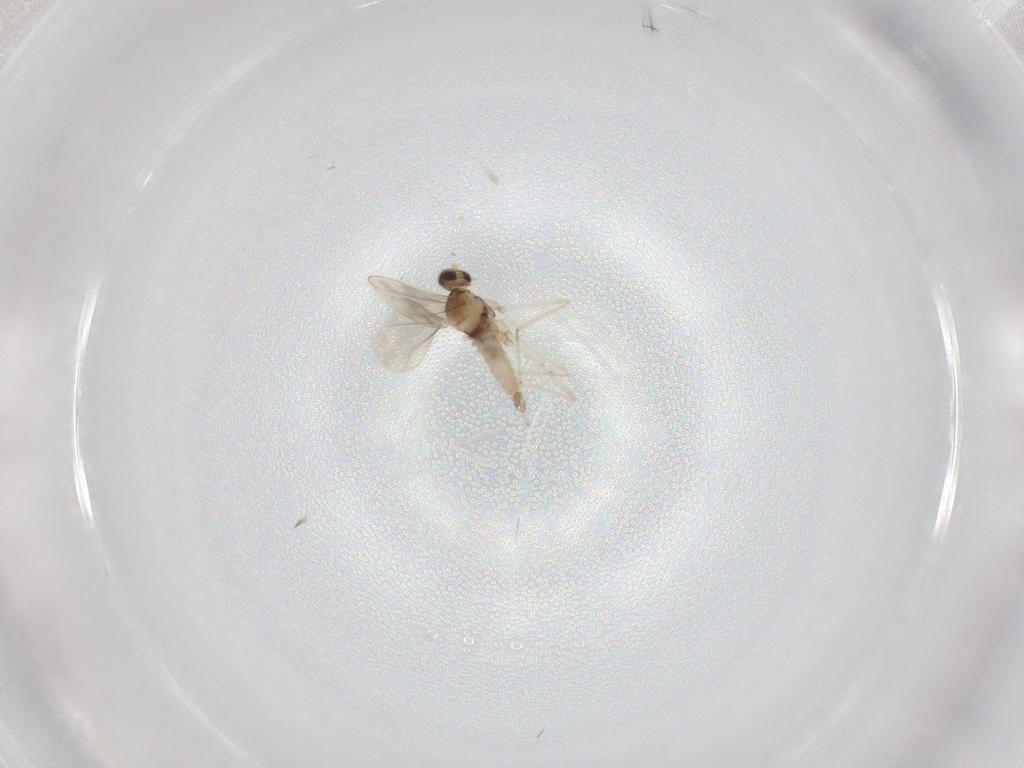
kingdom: Animalia
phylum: Arthropoda
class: Insecta
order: Diptera
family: Cecidomyiidae
